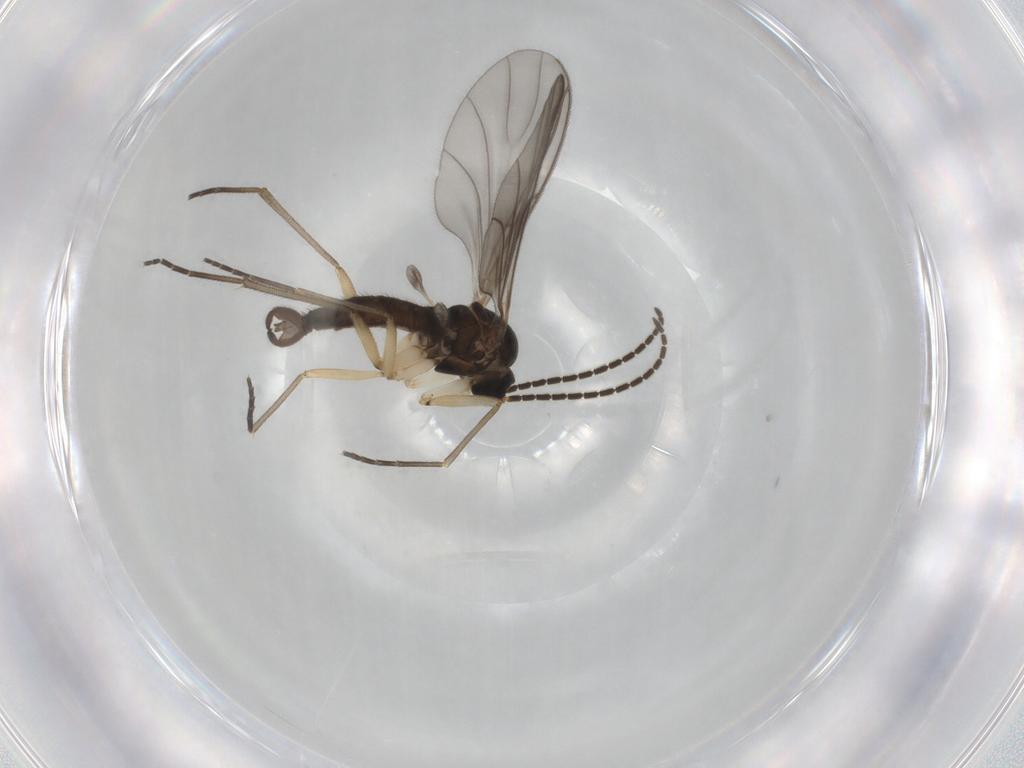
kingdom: Animalia
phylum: Arthropoda
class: Insecta
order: Diptera
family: Sciaridae
